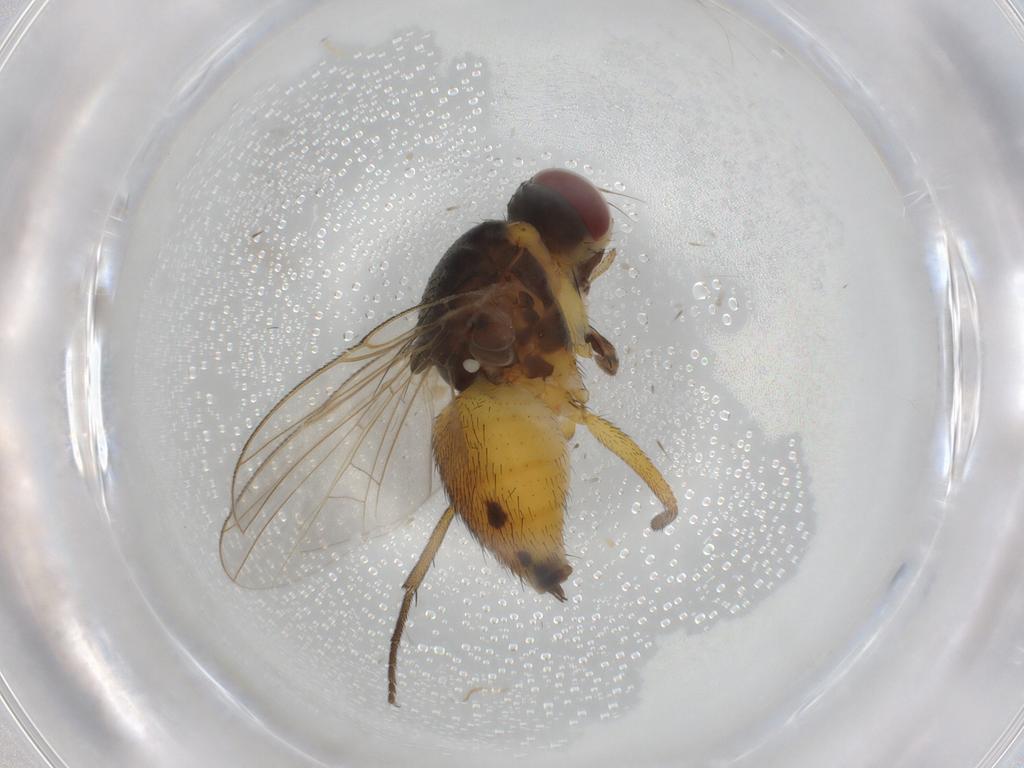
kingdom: Animalia
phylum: Arthropoda
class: Insecta
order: Diptera
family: Muscidae
